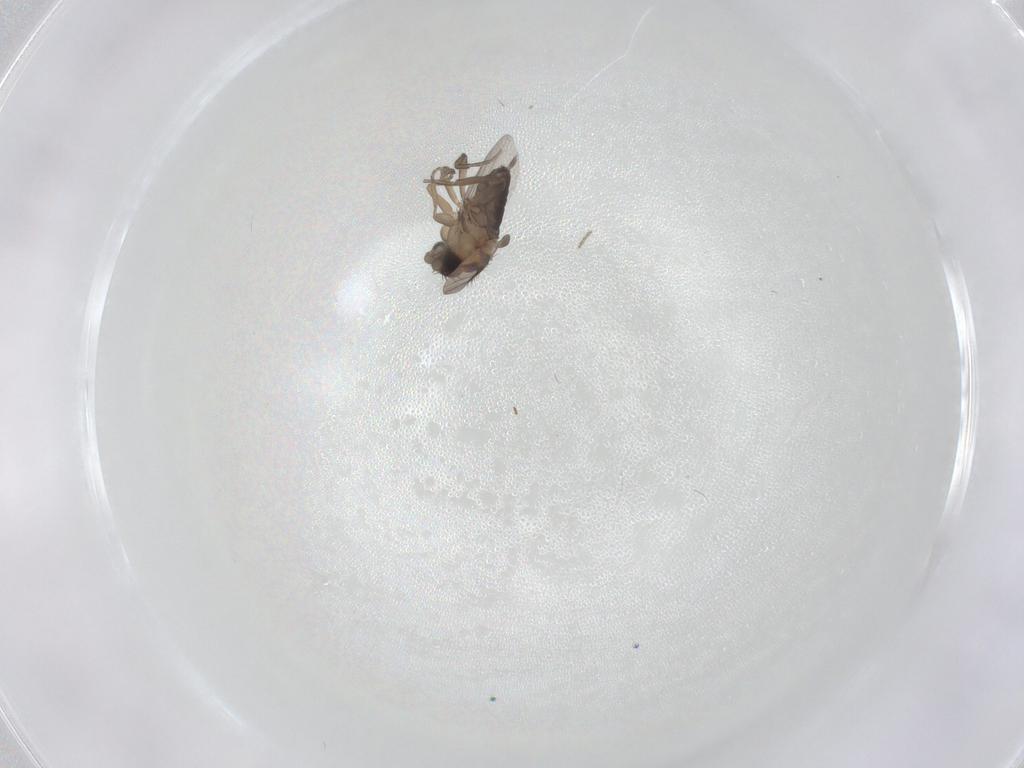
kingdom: Animalia
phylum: Arthropoda
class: Insecta
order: Diptera
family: Phoridae
